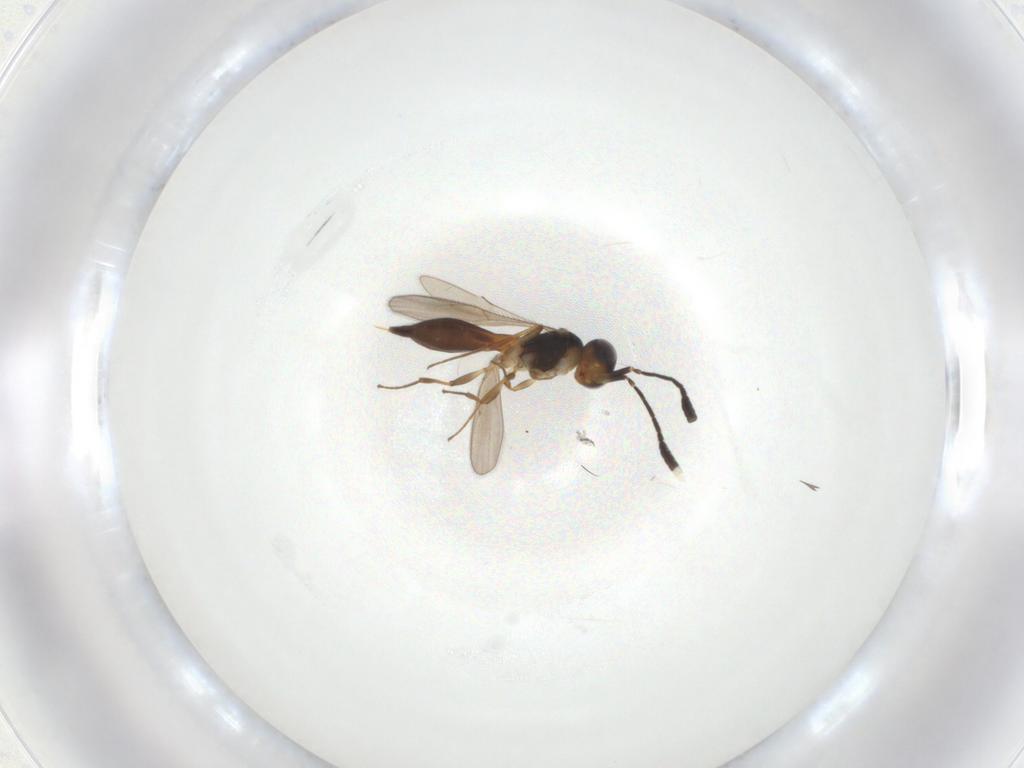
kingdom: Animalia
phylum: Arthropoda
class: Insecta
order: Hymenoptera
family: Scelionidae
